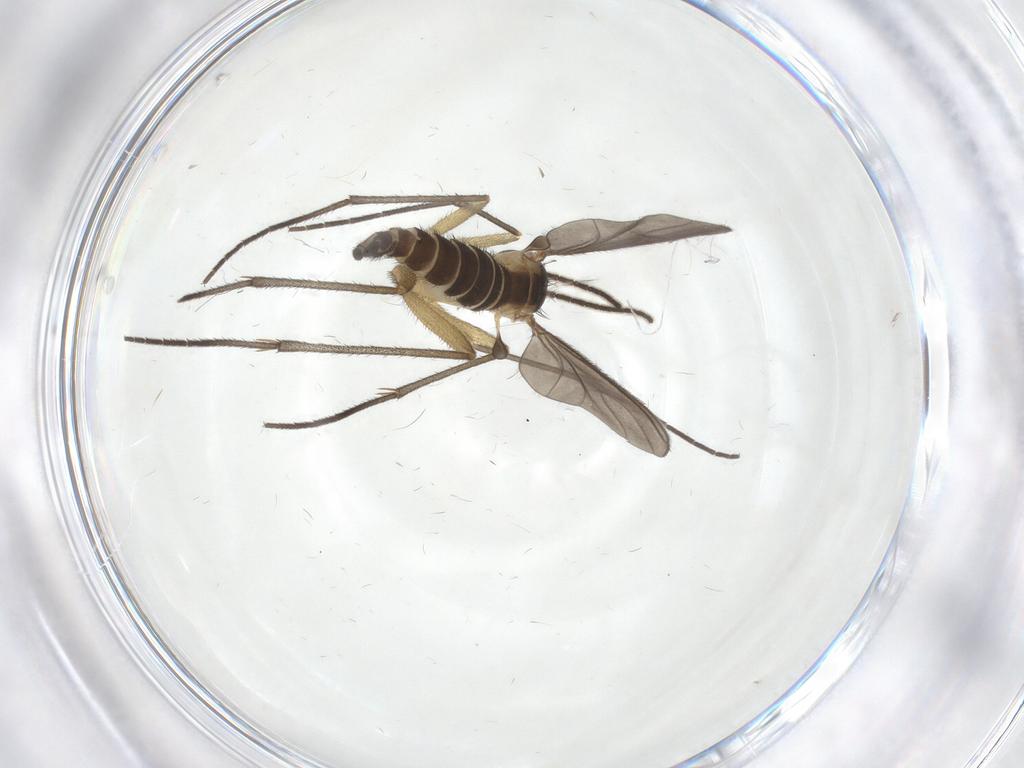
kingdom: Animalia
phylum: Arthropoda
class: Insecta
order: Diptera
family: Sciaridae
